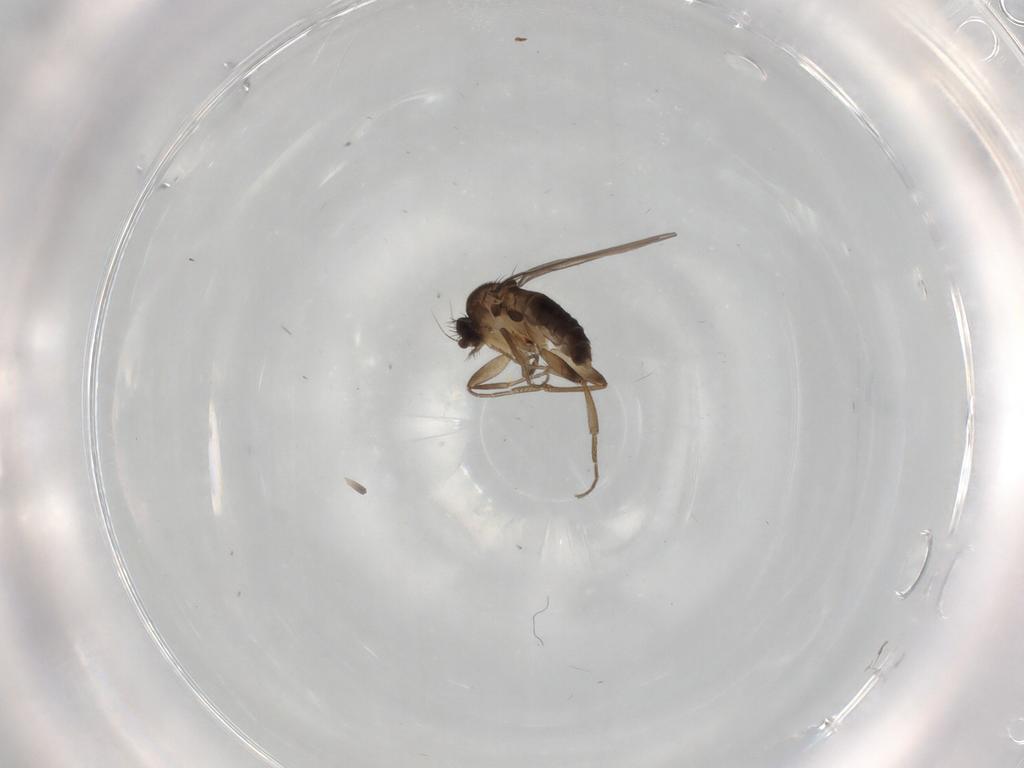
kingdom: Animalia
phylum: Arthropoda
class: Insecta
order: Diptera
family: Phoridae
